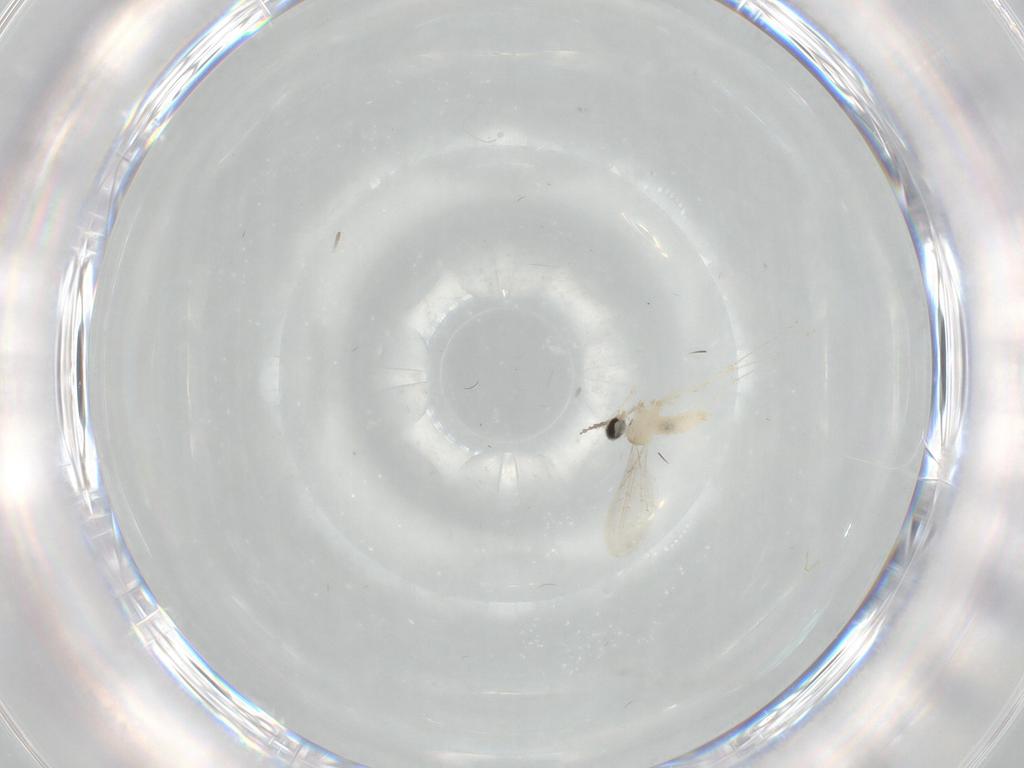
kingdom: Animalia
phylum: Arthropoda
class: Insecta
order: Diptera
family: Cecidomyiidae
